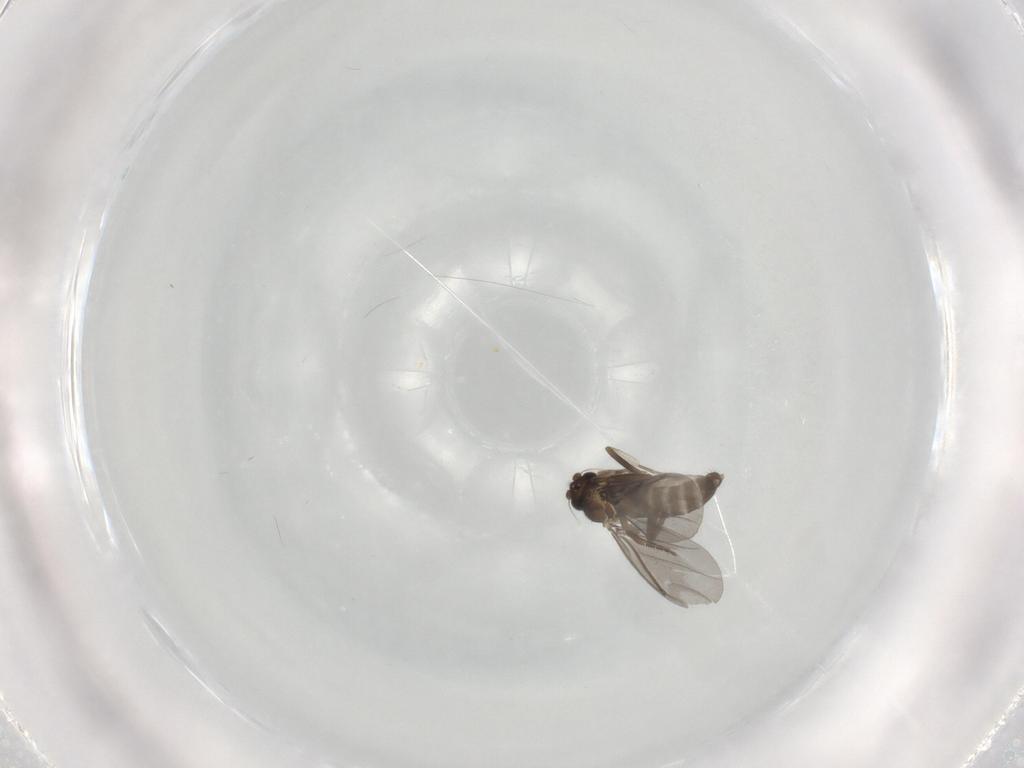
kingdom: Animalia
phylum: Arthropoda
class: Insecta
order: Diptera
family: Phoridae
